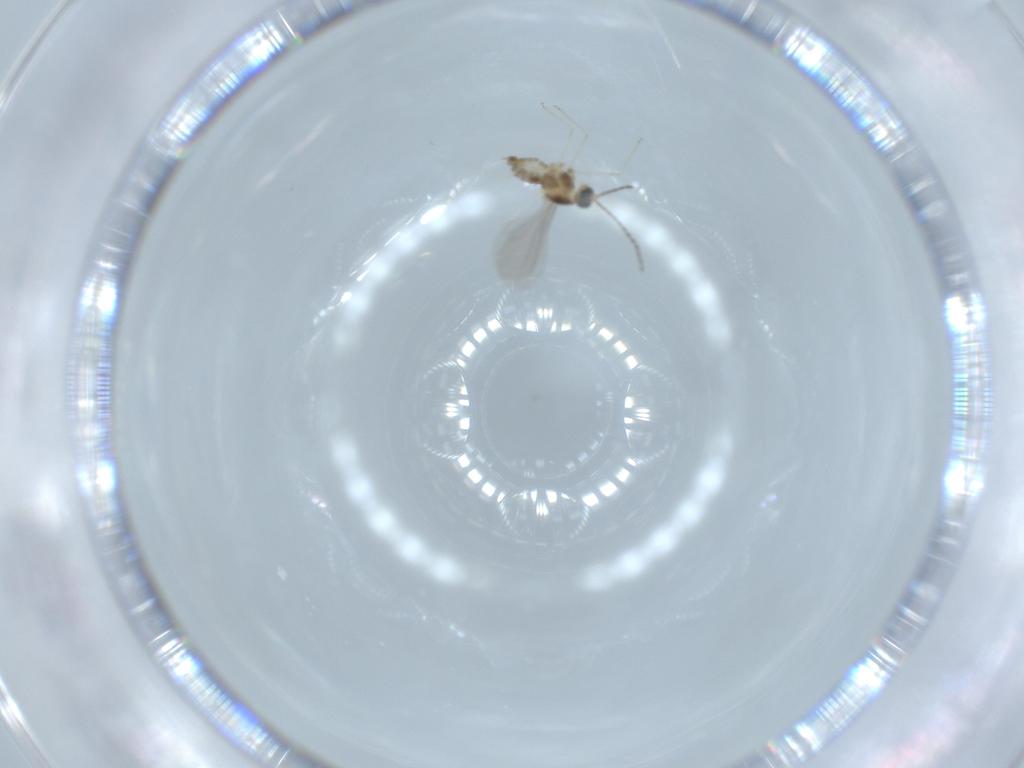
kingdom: Animalia
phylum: Arthropoda
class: Insecta
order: Diptera
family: Cecidomyiidae
